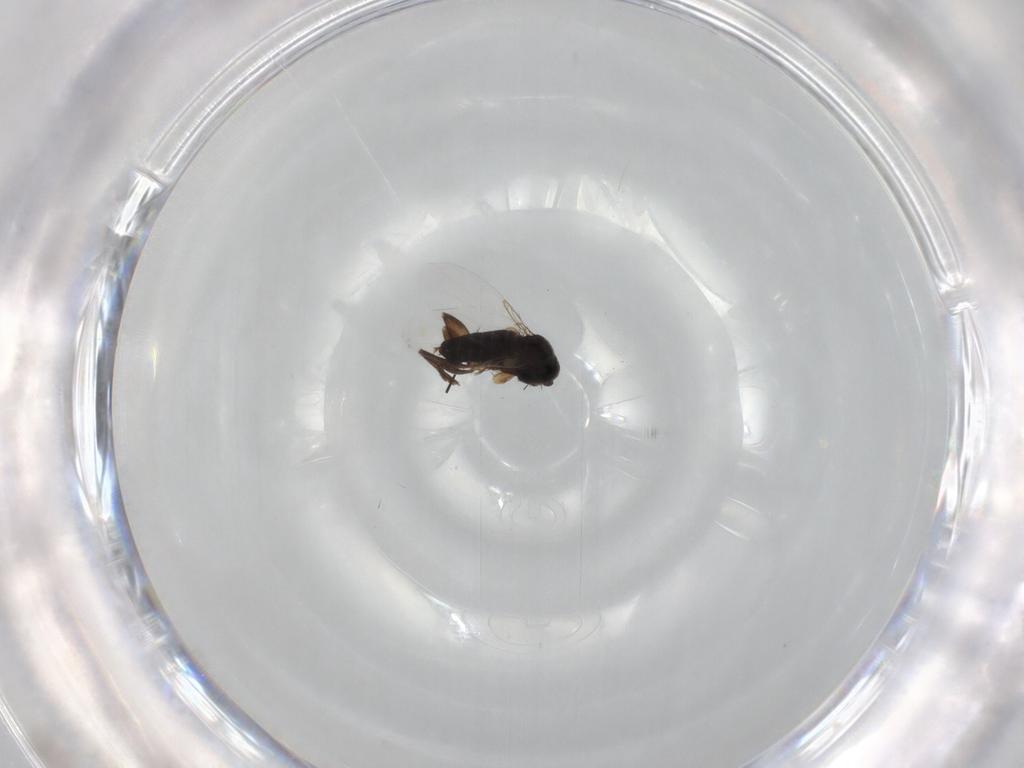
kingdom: Animalia
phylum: Arthropoda
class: Insecta
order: Diptera
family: Phoridae
